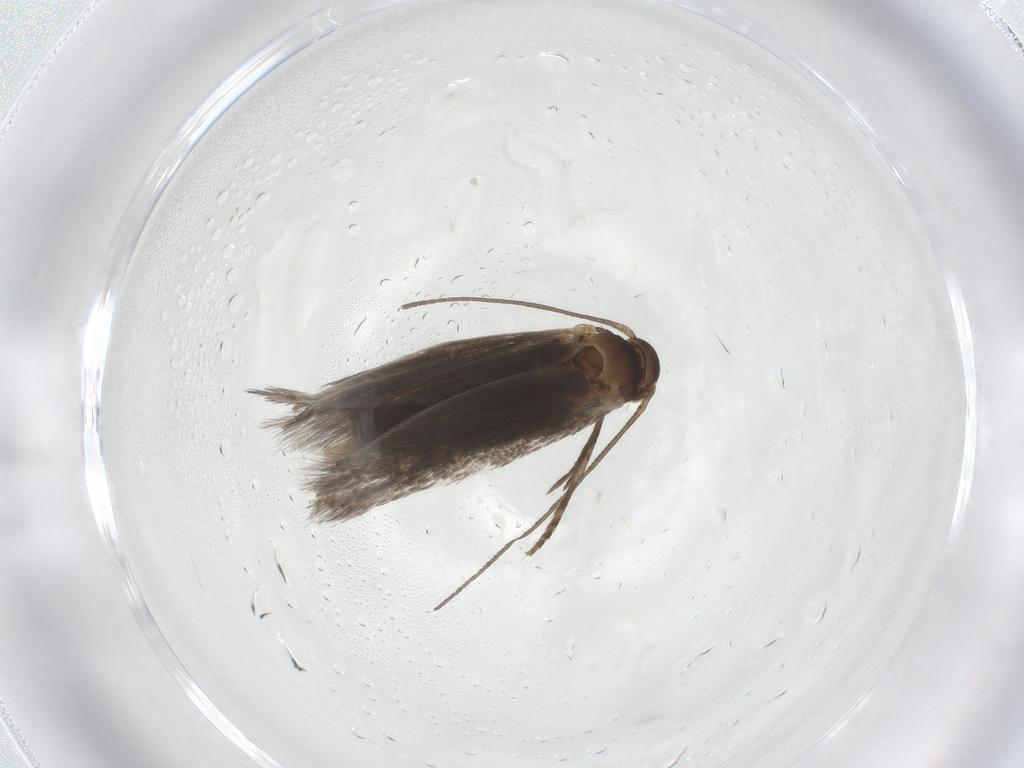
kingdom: Animalia
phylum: Arthropoda
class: Insecta
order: Lepidoptera
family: Elachistidae
